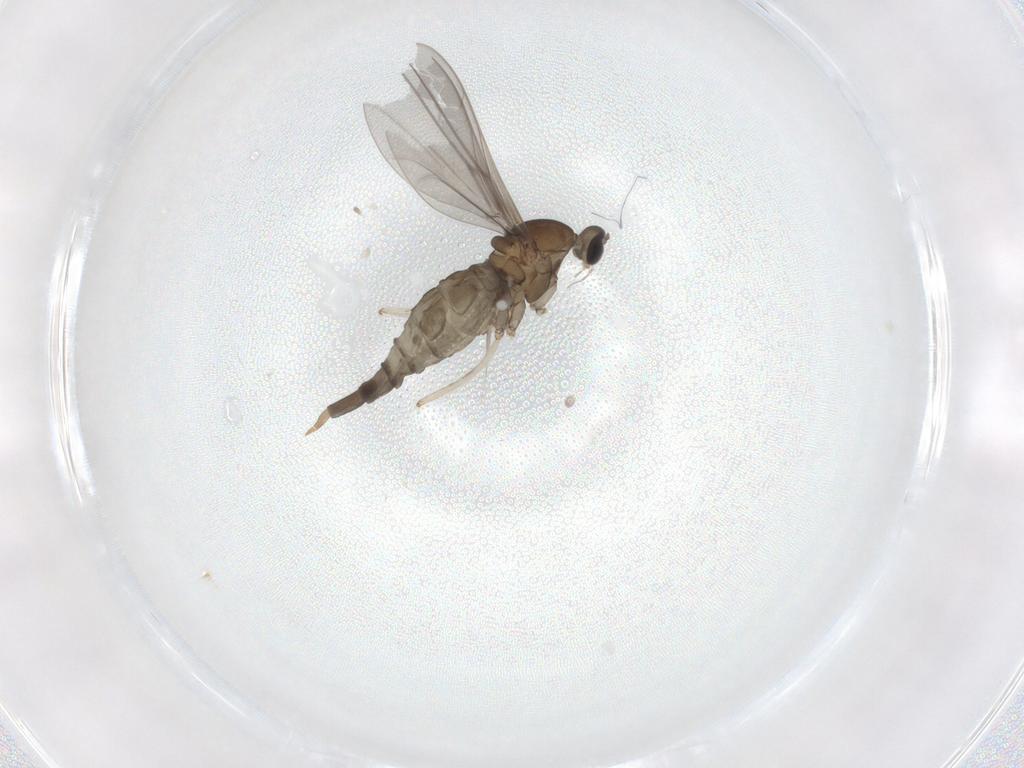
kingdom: Animalia
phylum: Arthropoda
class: Insecta
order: Diptera
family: Cecidomyiidae
